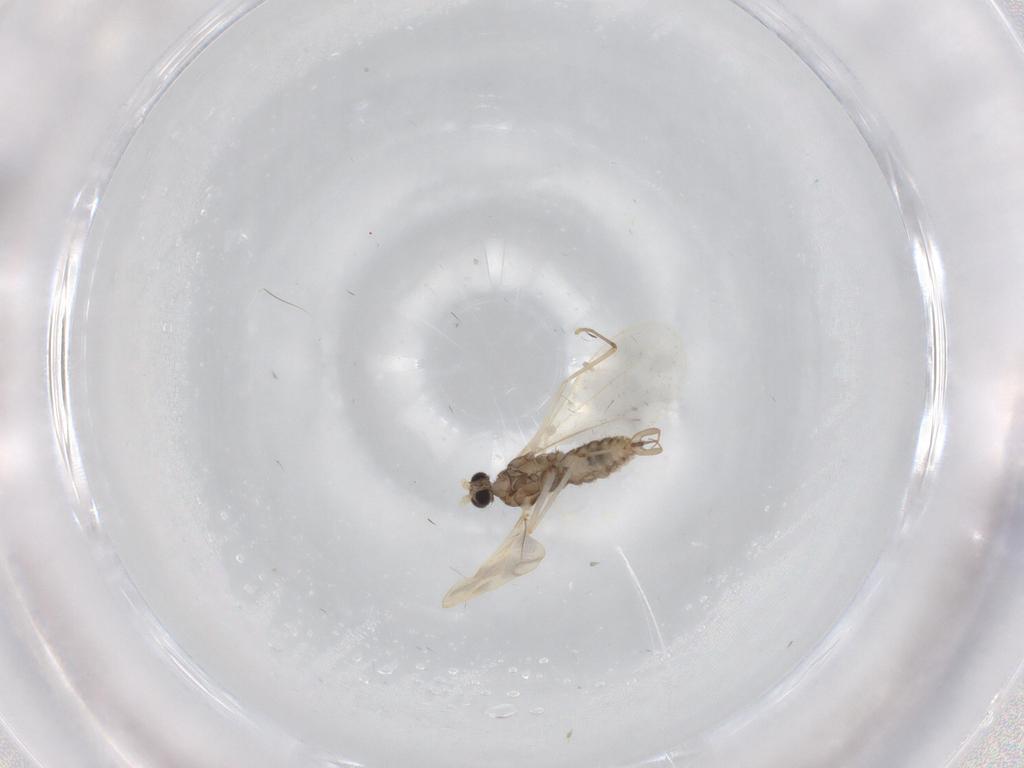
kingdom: Animalia
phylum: Arthropoda
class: Insecta
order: Diptera
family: Cecidomyiidae
